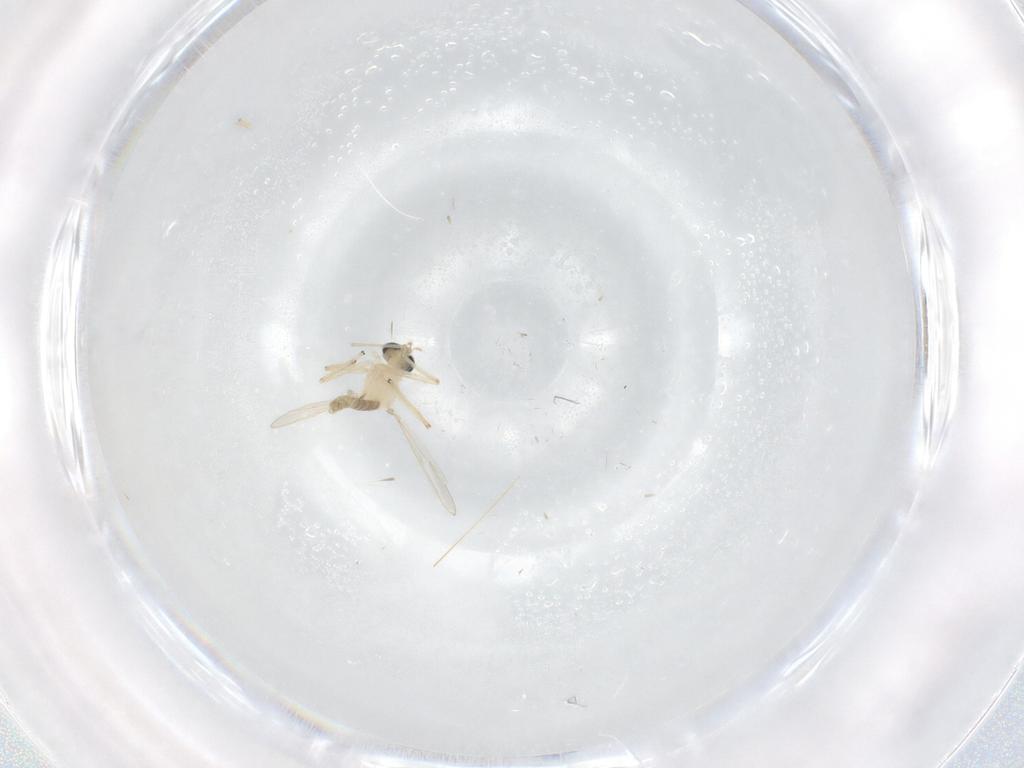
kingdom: Animalia
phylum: Arthropoda
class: Insecta
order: Diptera
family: Chironomidae
